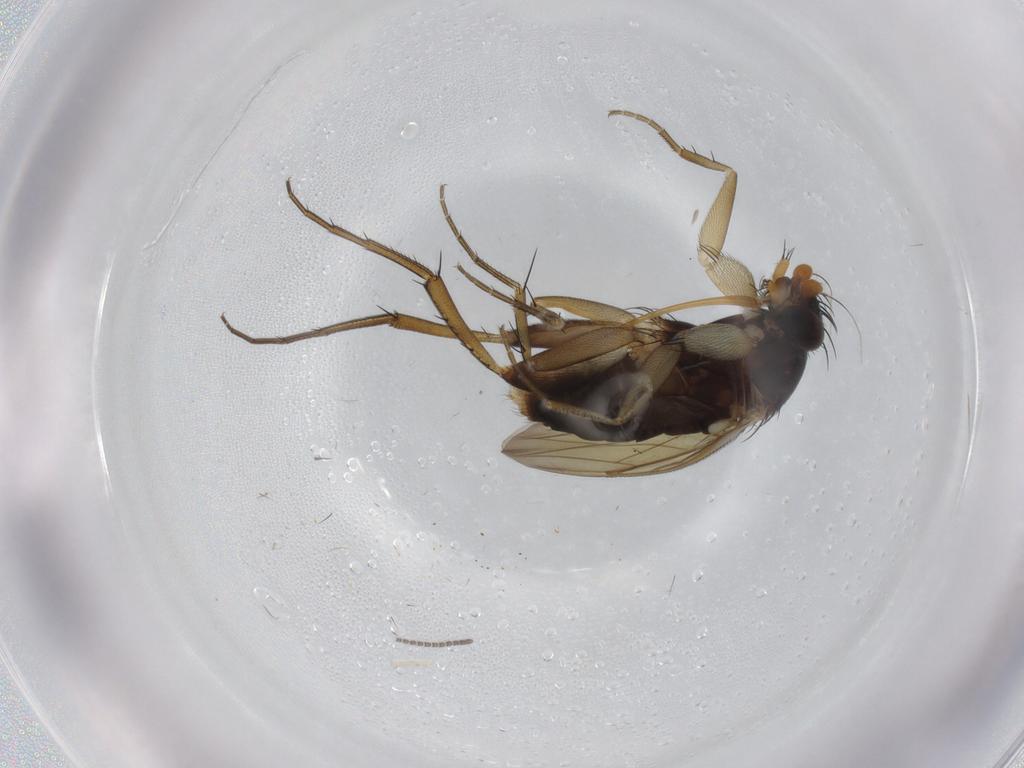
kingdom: Animalia
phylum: Arthropoda
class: Insecta
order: Diptera
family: Phoridae
